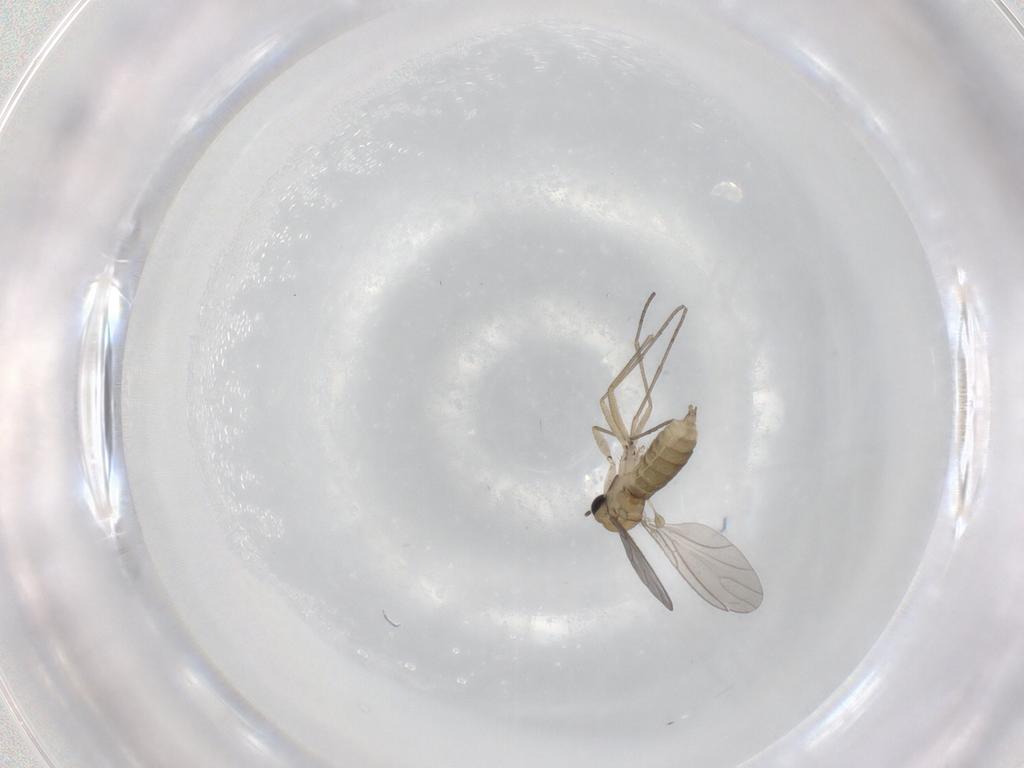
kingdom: Animalia
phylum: Arthropoda
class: Insecta
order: Diptera
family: Sciaridae
